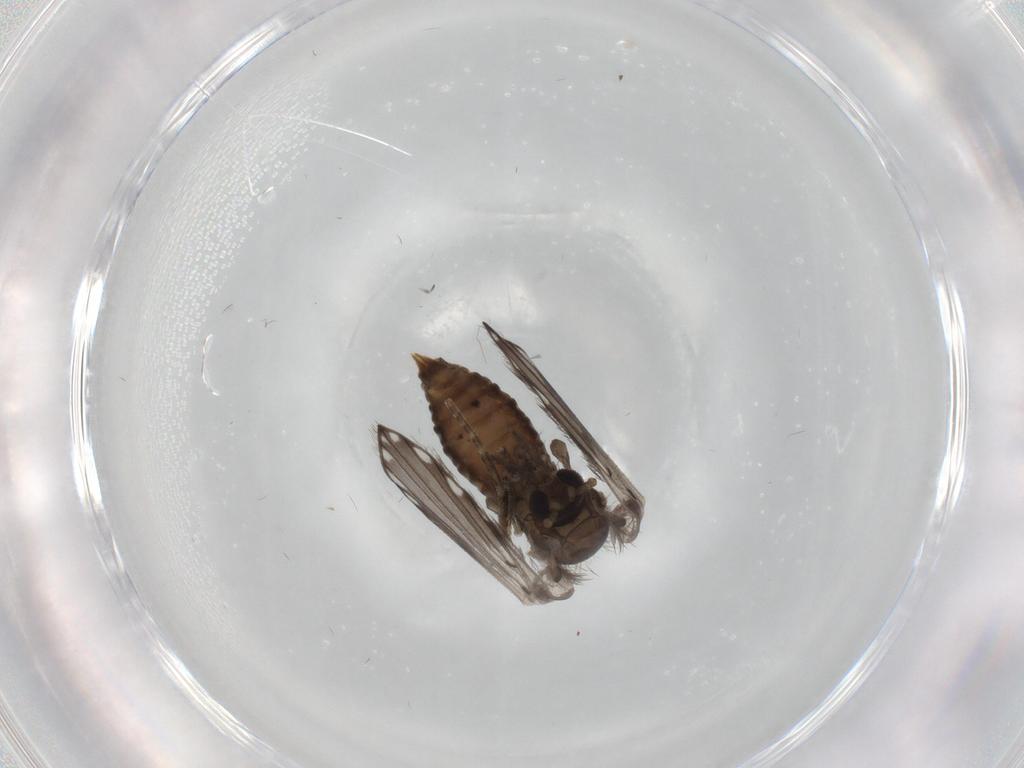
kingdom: Animalia
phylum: Arthropoda
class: Insecta
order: Diptera
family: Psychodidae
